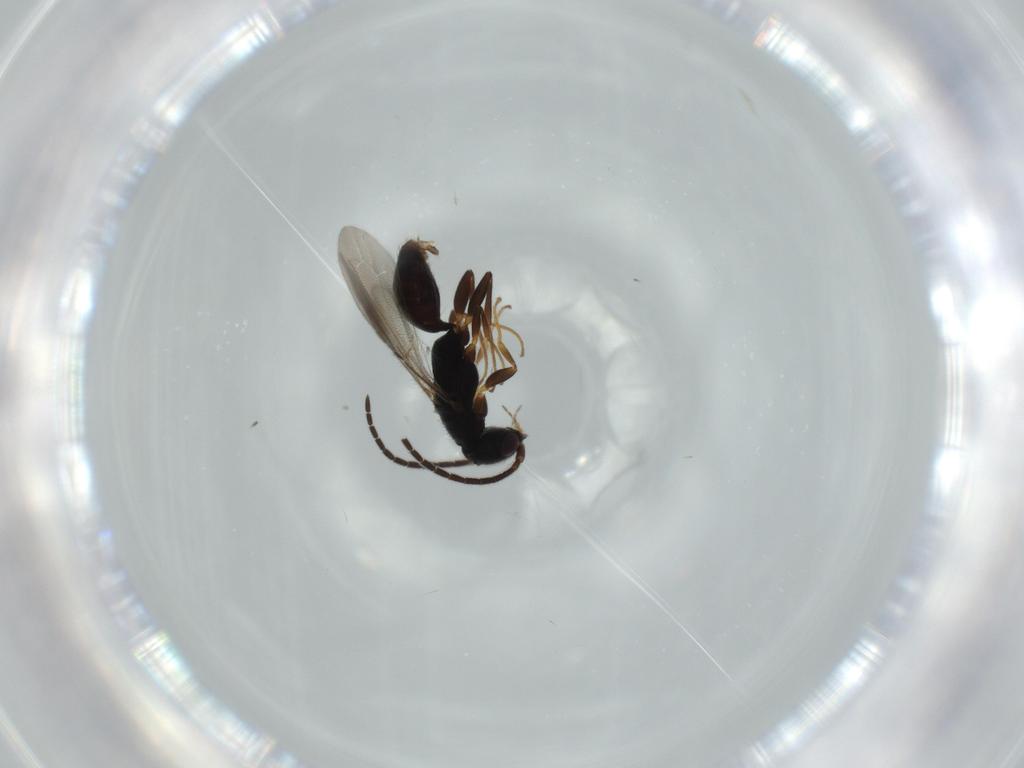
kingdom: Animalia
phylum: Arthropoda
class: Insecta
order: Hymenoptera
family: Bethylidae
